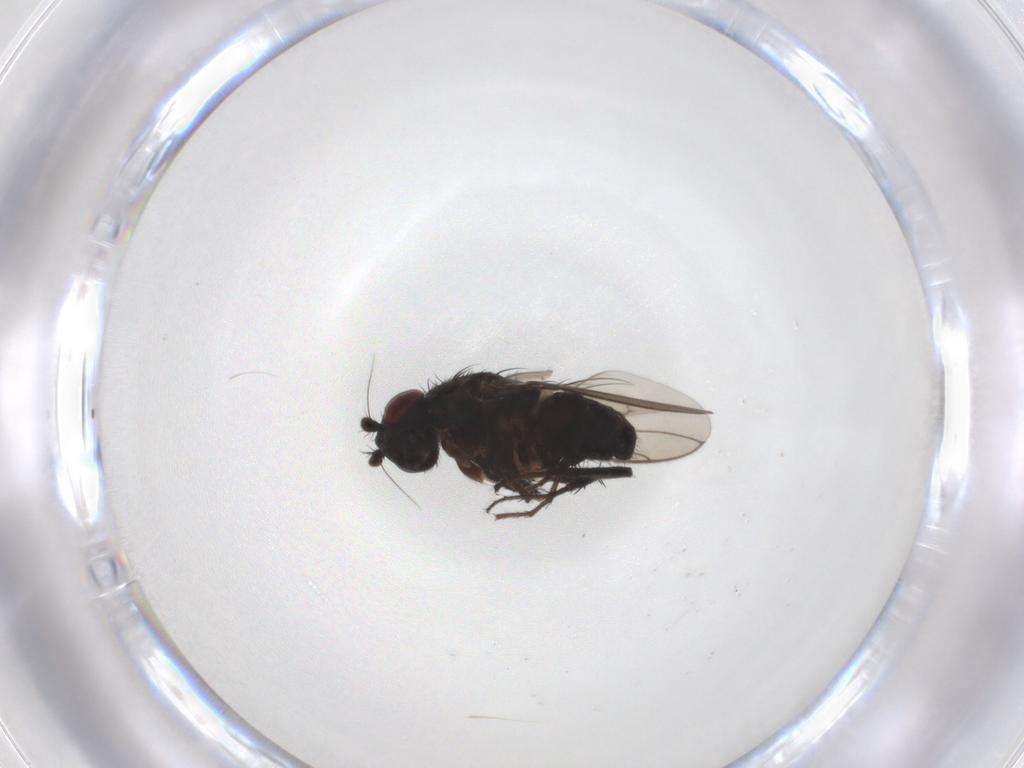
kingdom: Animalia
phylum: Arthropoda
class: Insecta
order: Diptera
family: Sphaeroceridae
